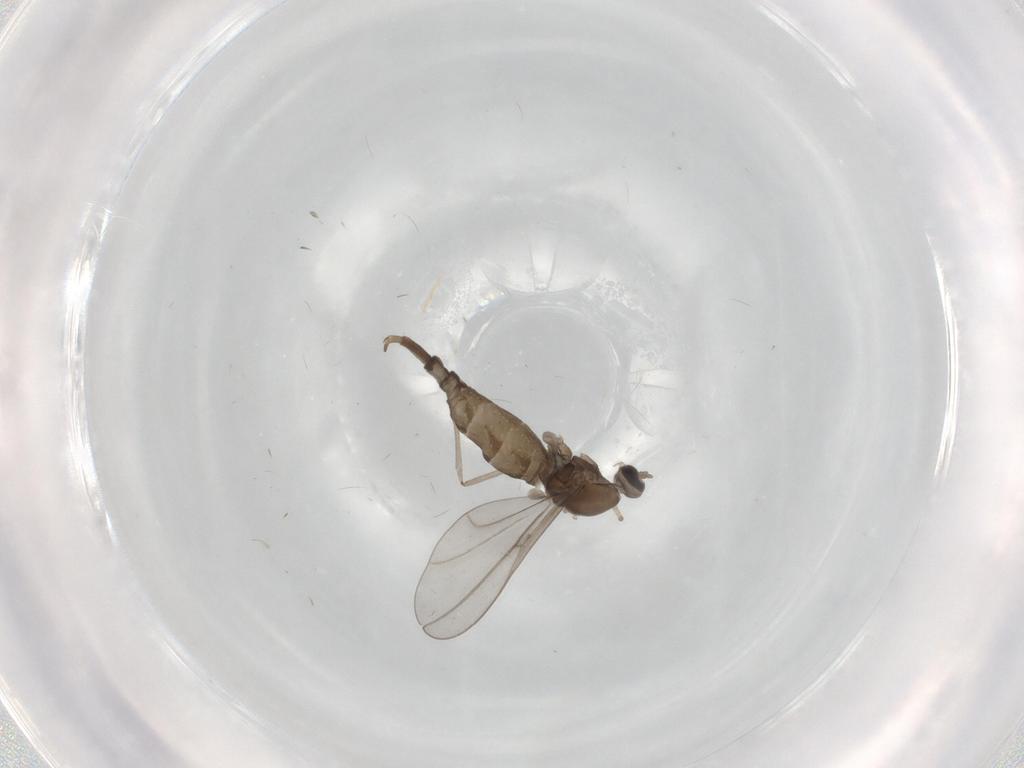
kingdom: Animalia
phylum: Arthropoda
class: Insecta
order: Diptera
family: Cecidomyiidae
